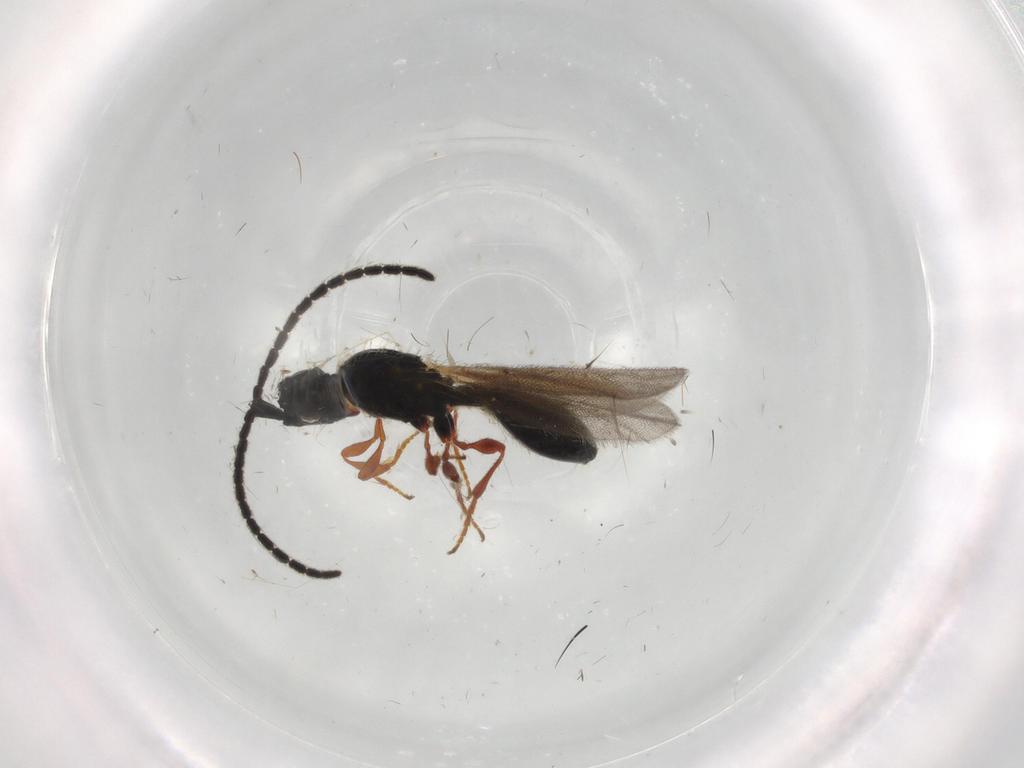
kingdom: Animalia
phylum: Arthropoda
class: Insecta
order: Hymenoptera
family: Diapriidae
